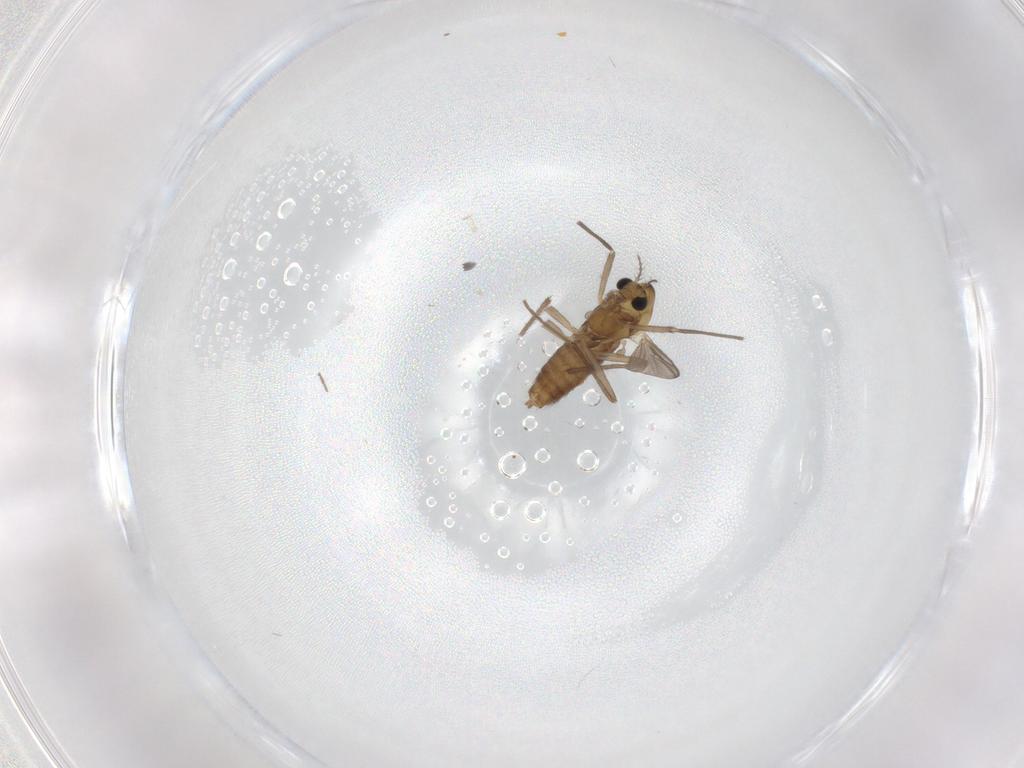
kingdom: Animalia
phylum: Arthropoda
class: Insecta
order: Diptera
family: Chironomidae
